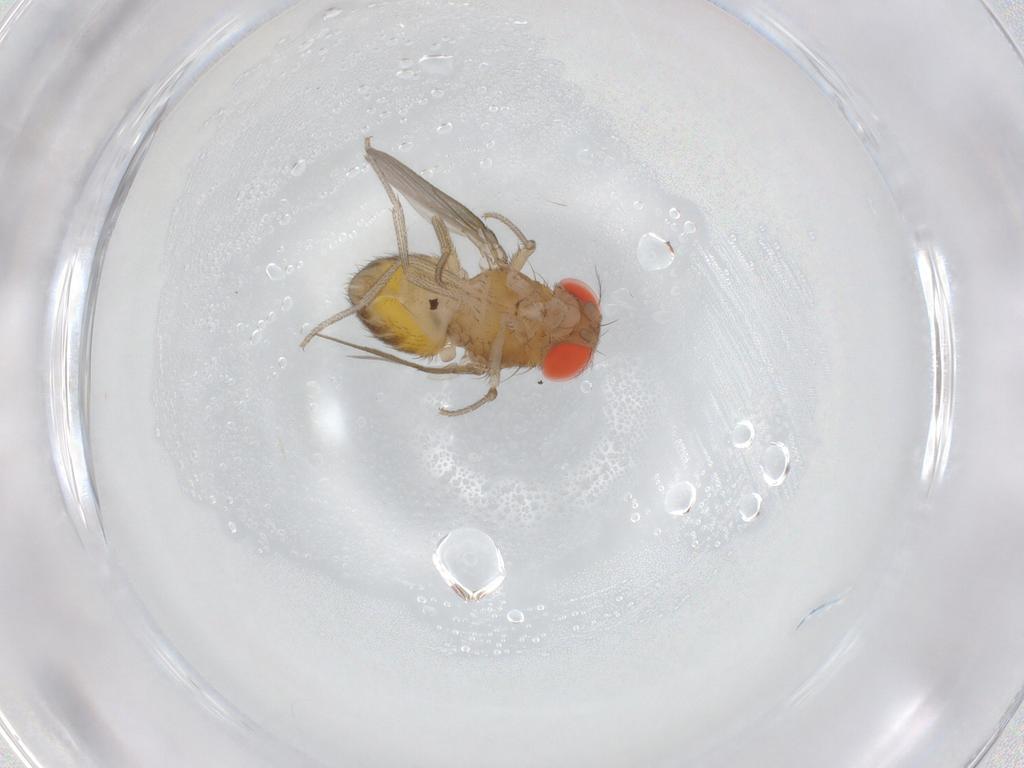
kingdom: Animalia
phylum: Arthropoda
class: Insecta
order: Diptera
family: Drosophilidae
